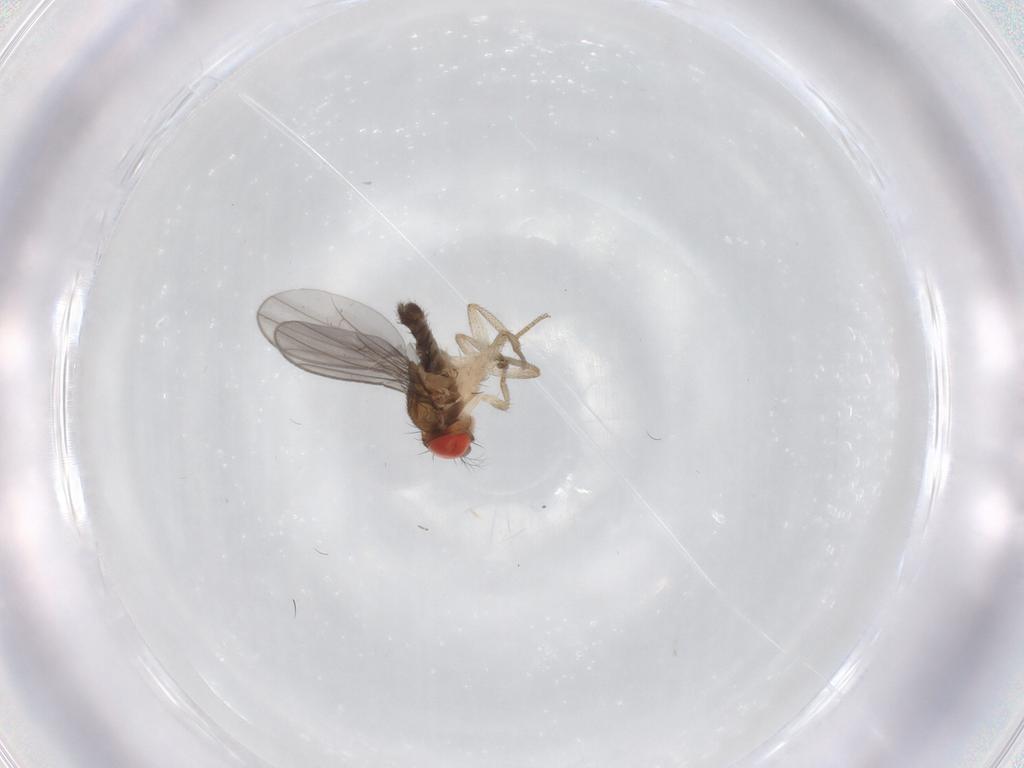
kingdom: Animalia
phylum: Arthropoda
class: Insecta
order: Diptera
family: Drosophilidae
